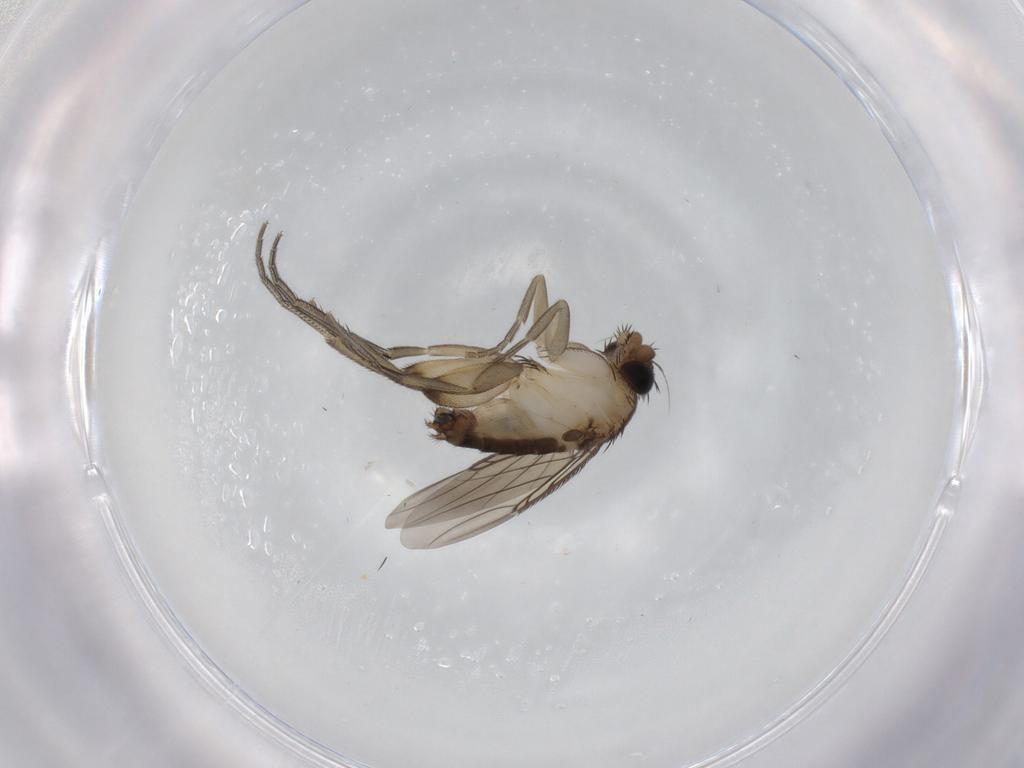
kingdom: Animalia
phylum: Arthropoda
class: Insecta
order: Diptera
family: Phoridae
